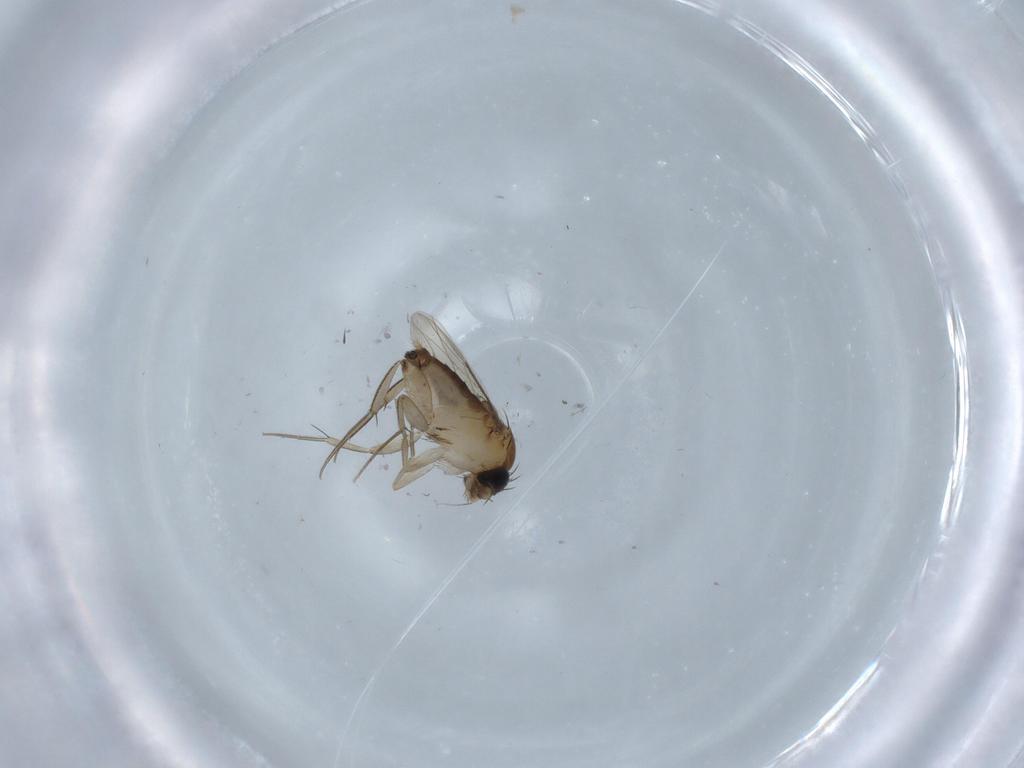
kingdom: Animalia
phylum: Arthropoda
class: Insecta
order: Diptera
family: Phoridae
